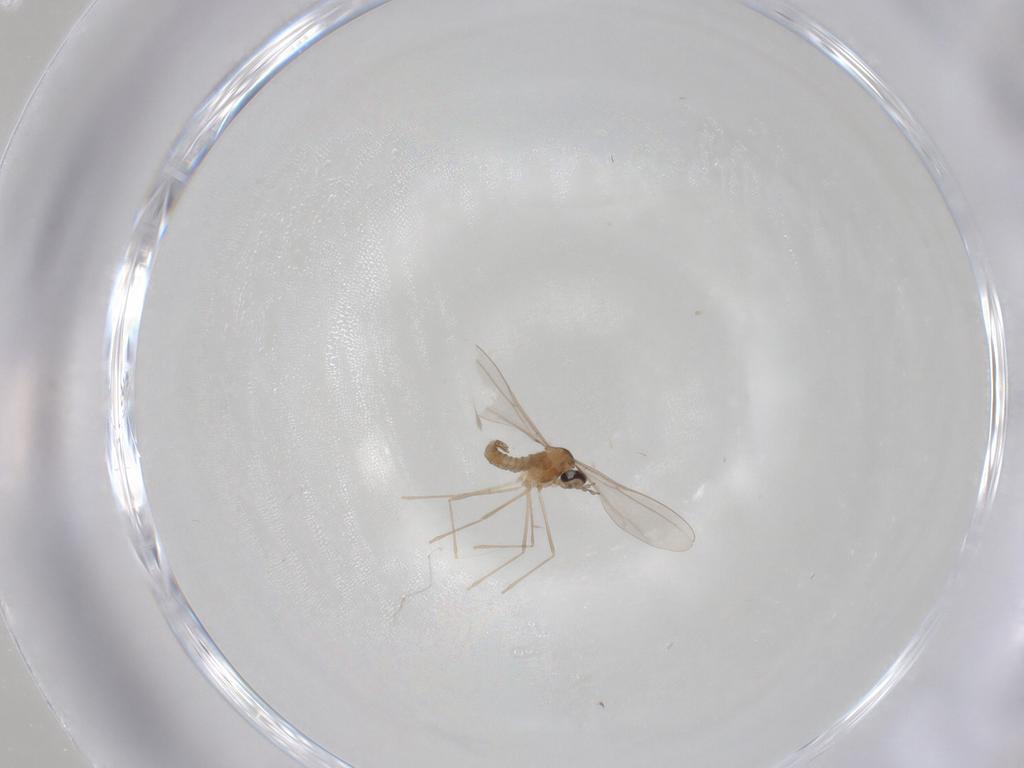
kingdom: Animalia
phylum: Arthropoda
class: Insecta
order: Diptera
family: Cecidomyiidae
